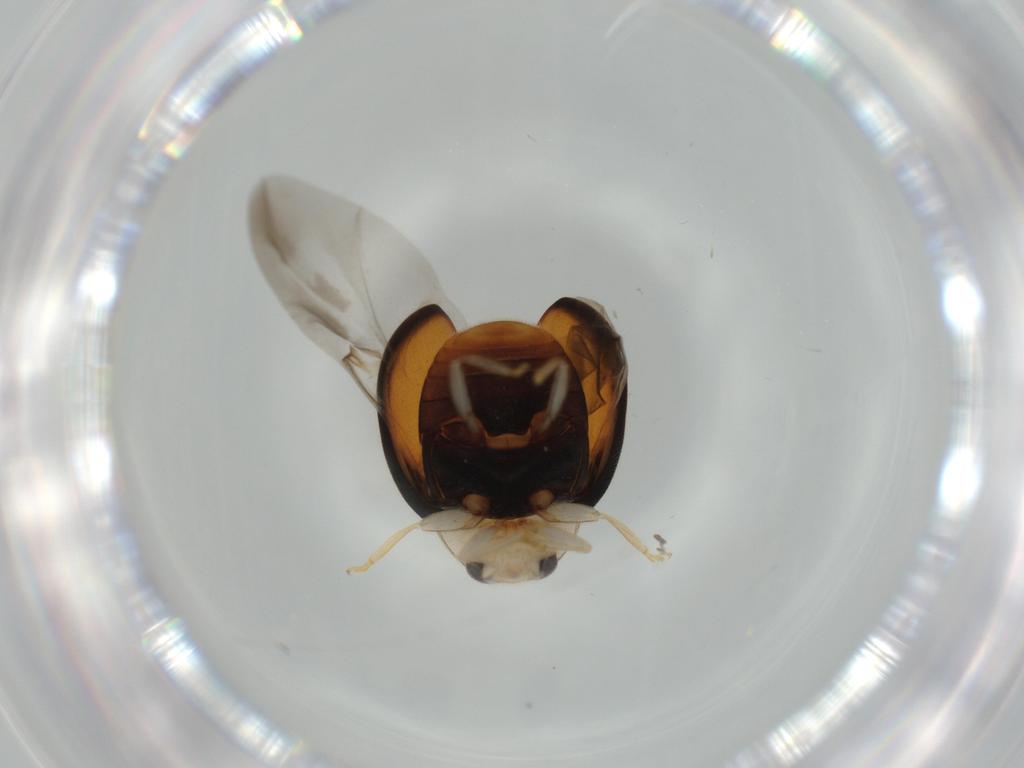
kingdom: Animalia
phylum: Arthropoda
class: Insecta
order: Coleoptera
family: Coccinellidae
